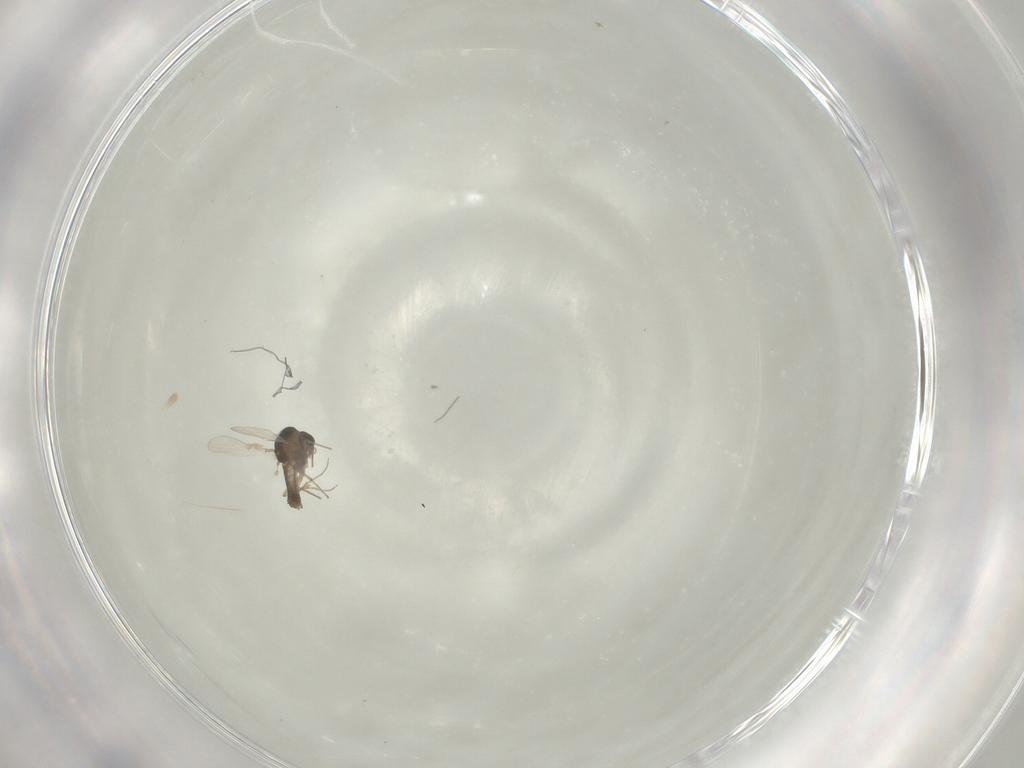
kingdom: Animalia
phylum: Arthropoda
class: Insecta
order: Diptera
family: Chironomidae
